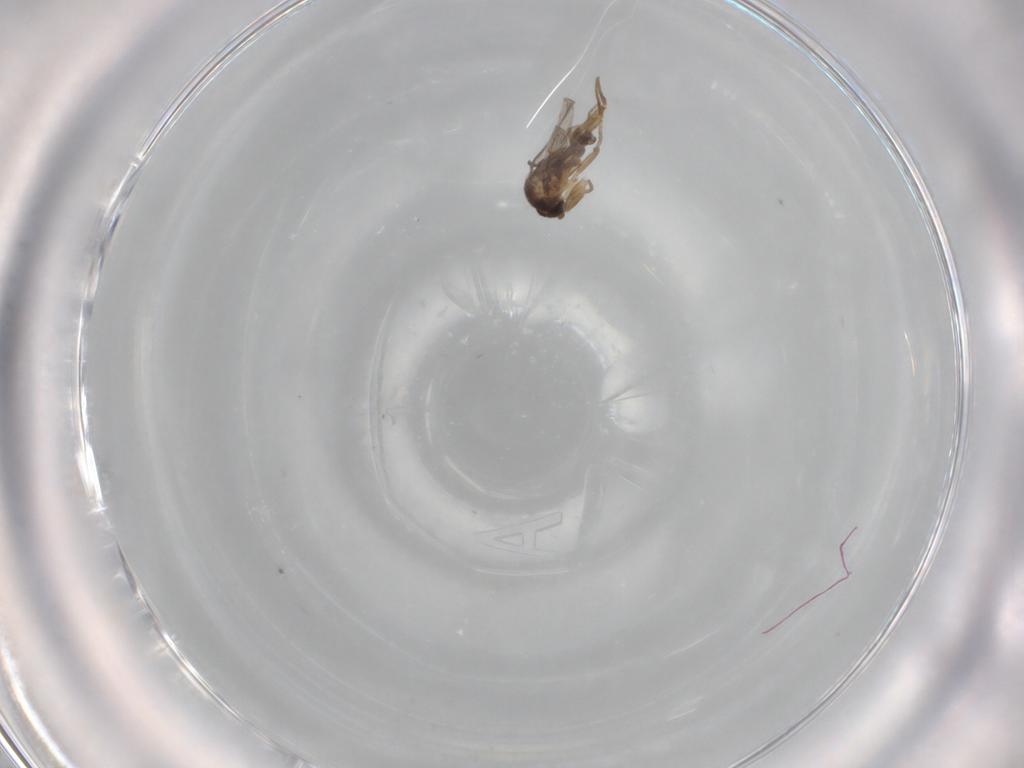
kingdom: Animalia
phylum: Arthropoda
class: Insecta
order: Diptera
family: Phoridae
